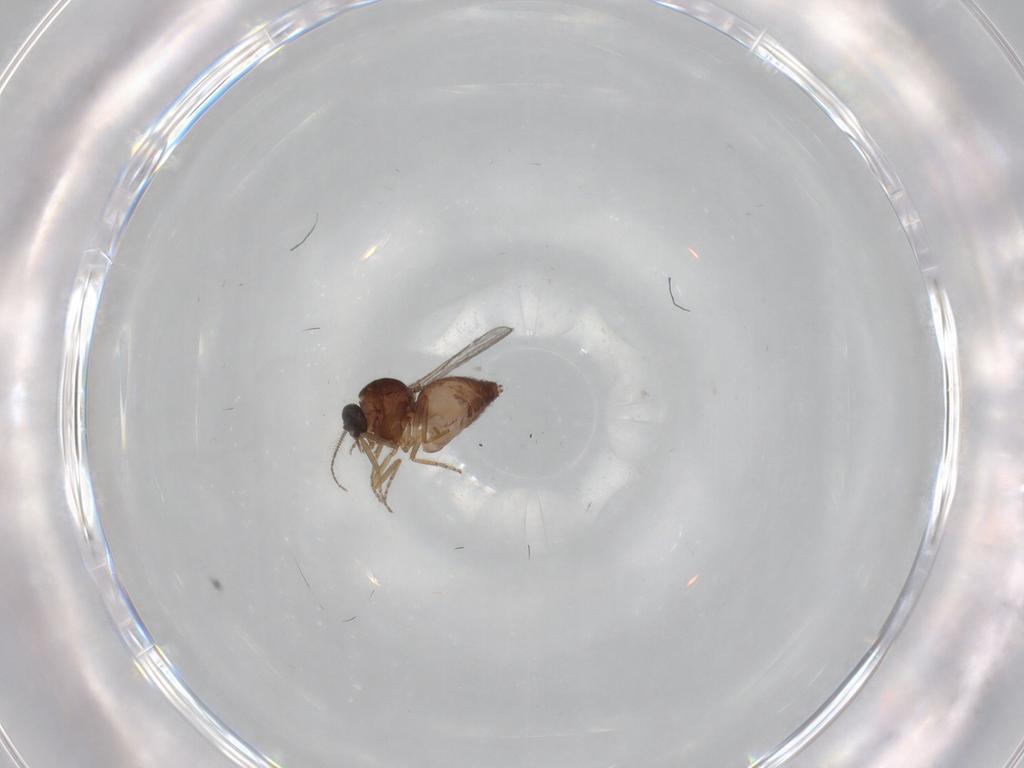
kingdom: Animalia
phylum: Arthropoda
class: Insecta
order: Diptera
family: Ceratopogonidae
